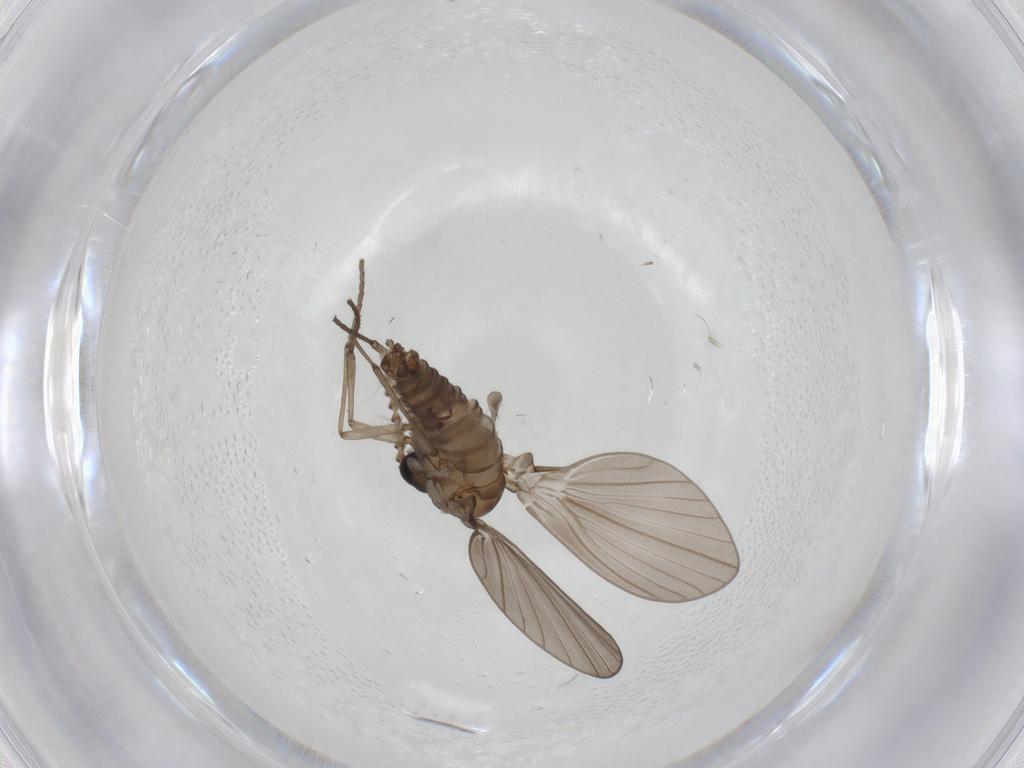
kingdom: Animalia
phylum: Arthropoda
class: Insecta
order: Diptera
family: Psychodidae
